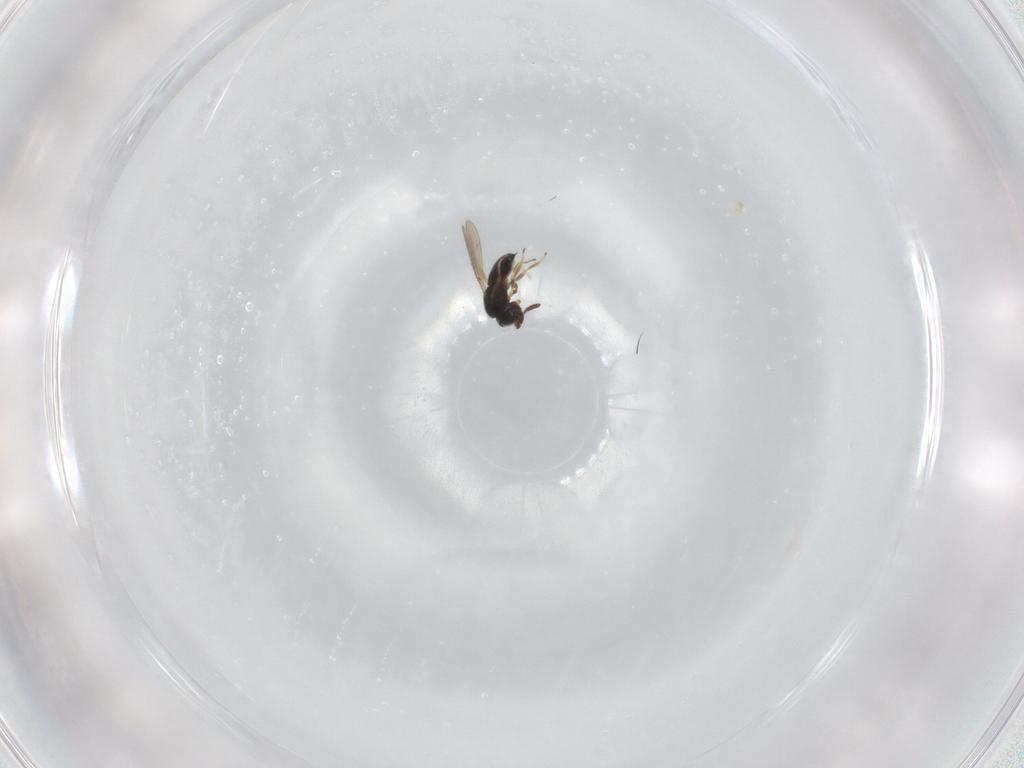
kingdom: Animalia
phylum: Arthropoda
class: Insecta
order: Hymenoptera
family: Scelionidae
